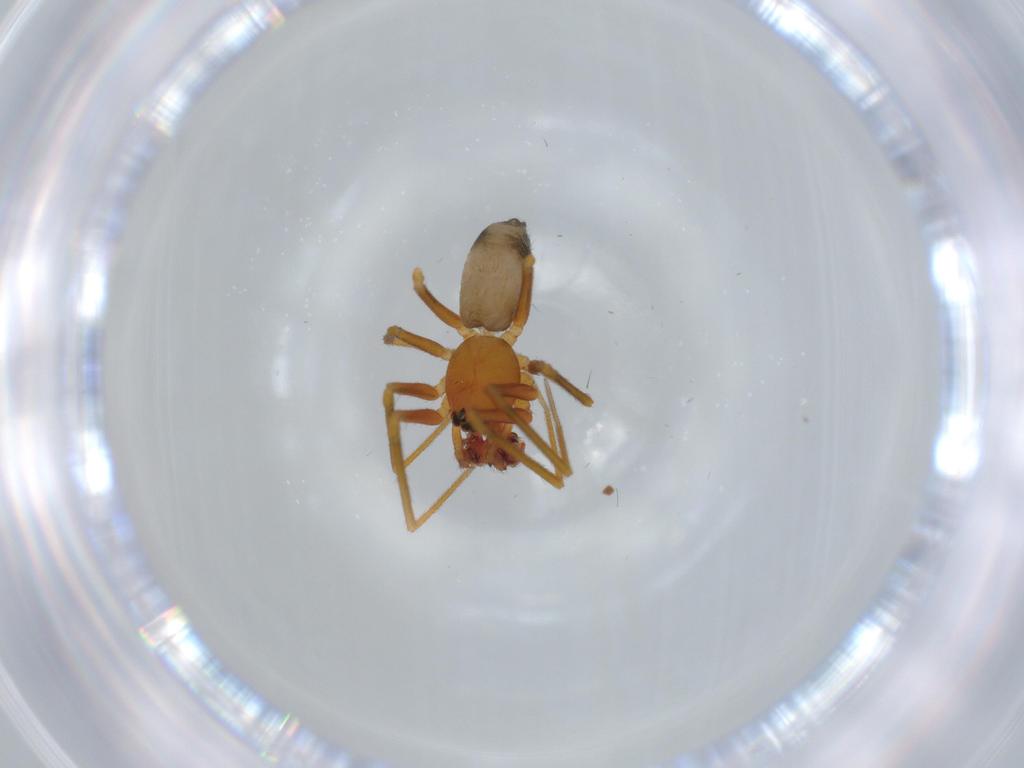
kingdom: Animalia
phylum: Arthropoda
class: Arachnida
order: Araneae
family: Linyphiidae
